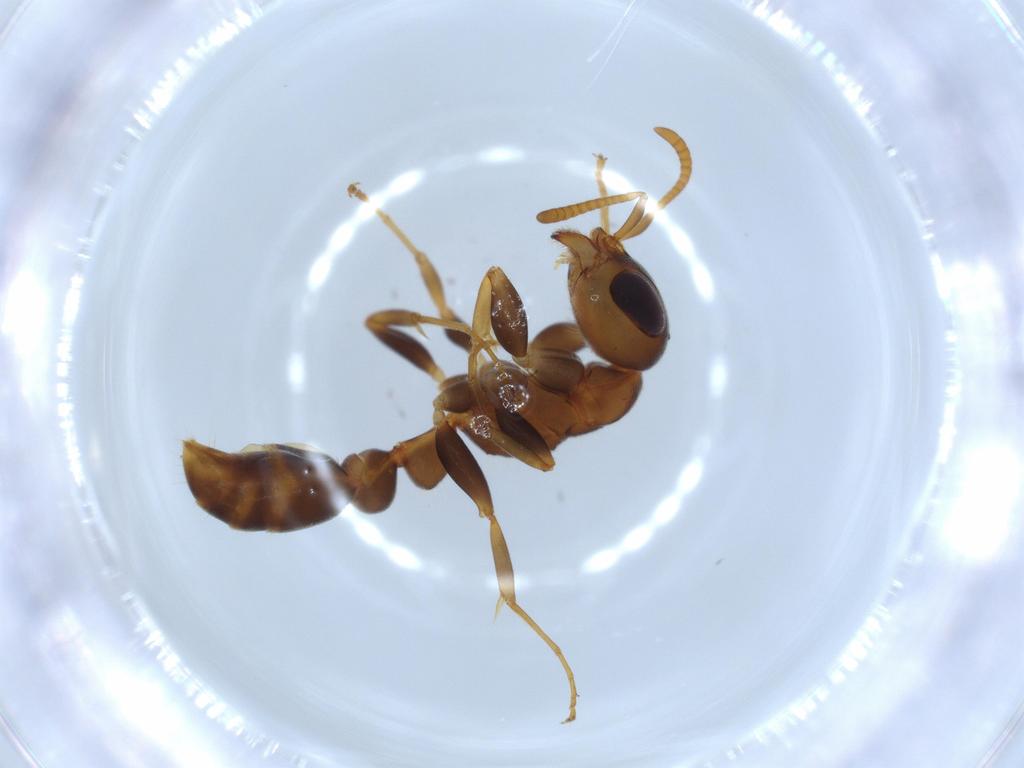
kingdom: Animalia
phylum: Arthropoda
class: Insecta
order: Hymenoptera
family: Formicidae
